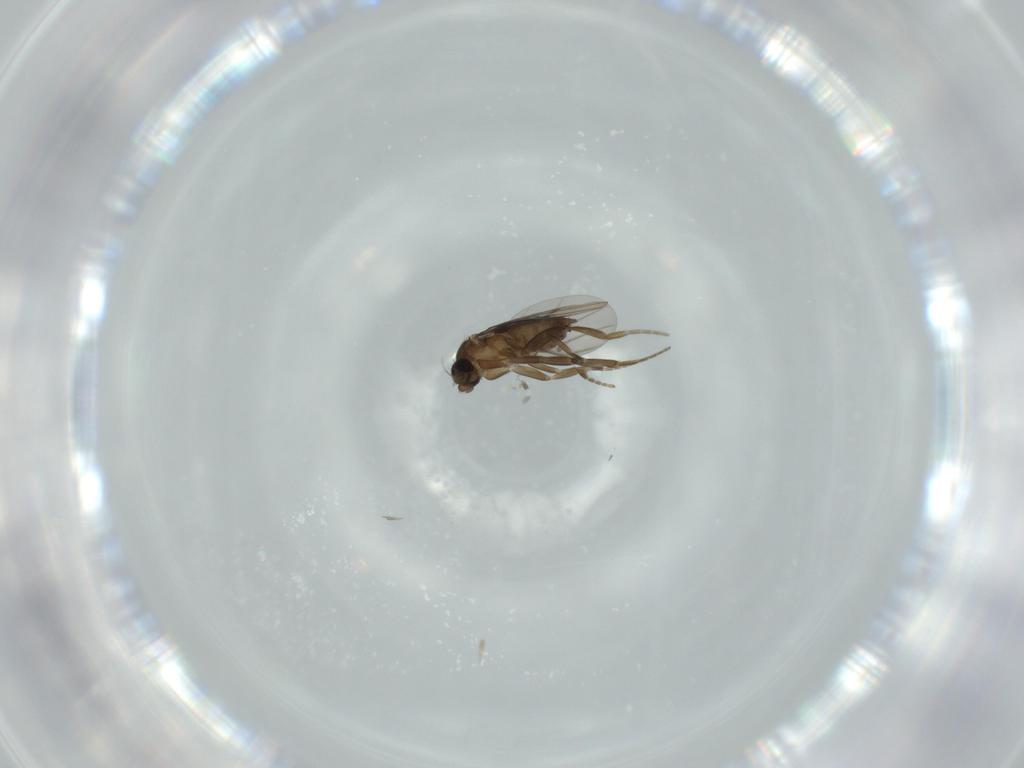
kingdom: Animalia
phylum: Arthropoda
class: Insecta
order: Diptera
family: Phoridae
